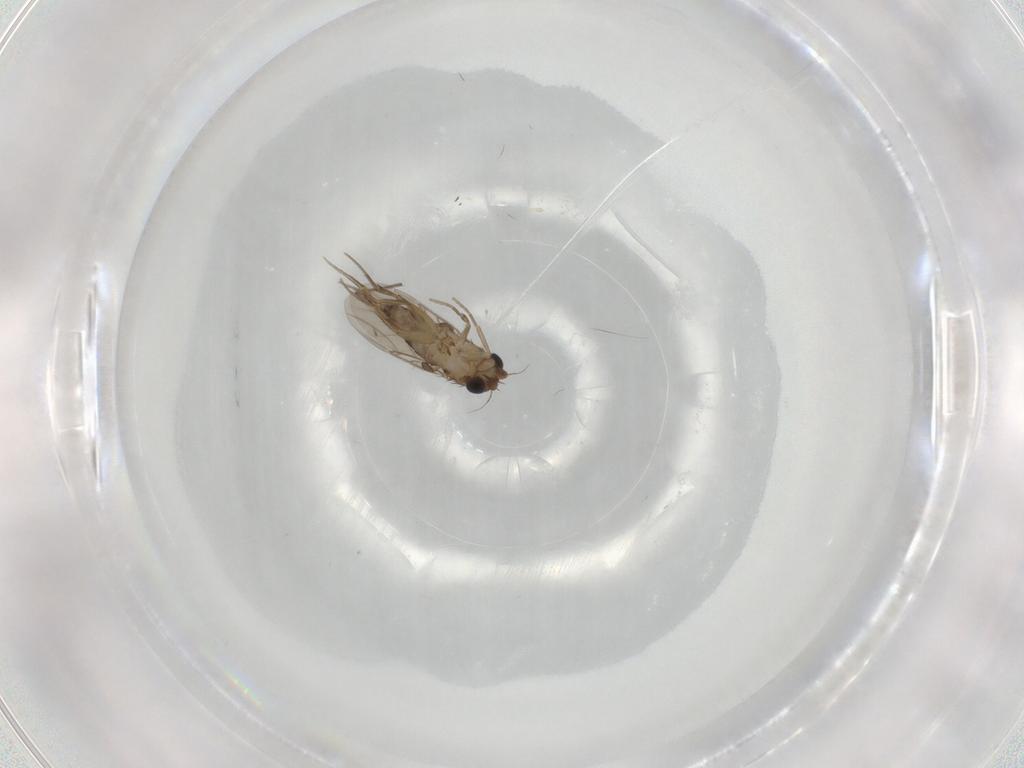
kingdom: Animalia
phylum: Arthropoda
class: Insecta
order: Diptera
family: Chironomidae
